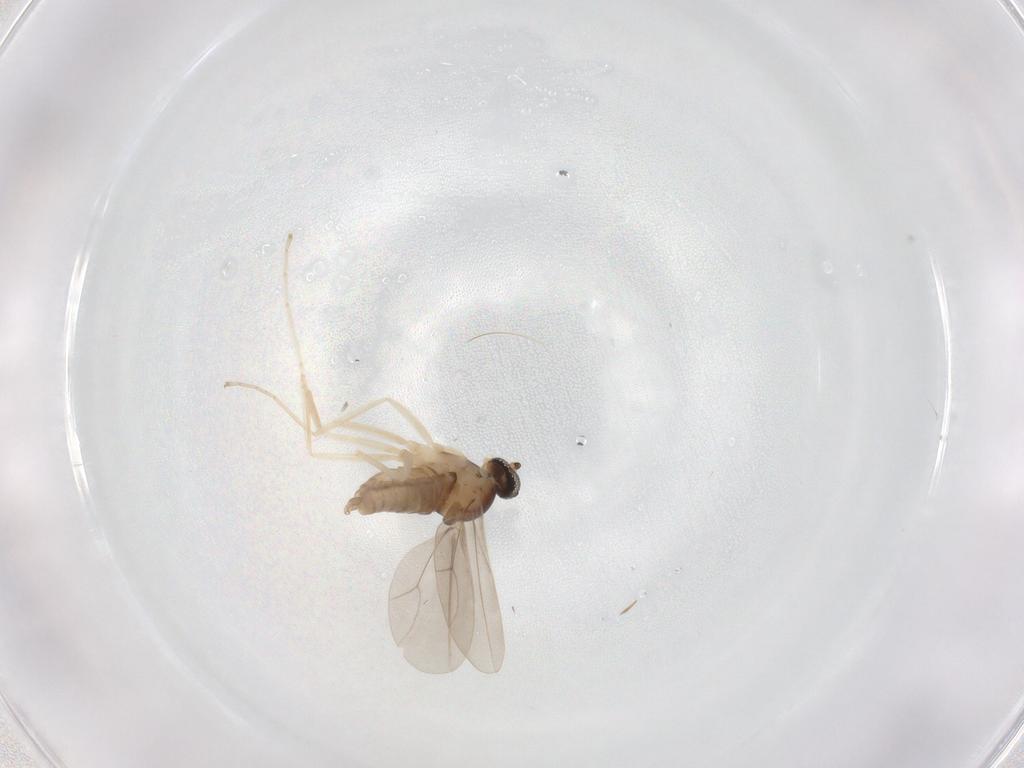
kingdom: Animalia
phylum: Arthropoda
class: Insecta
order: Diptera
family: Cecidomyiidae
